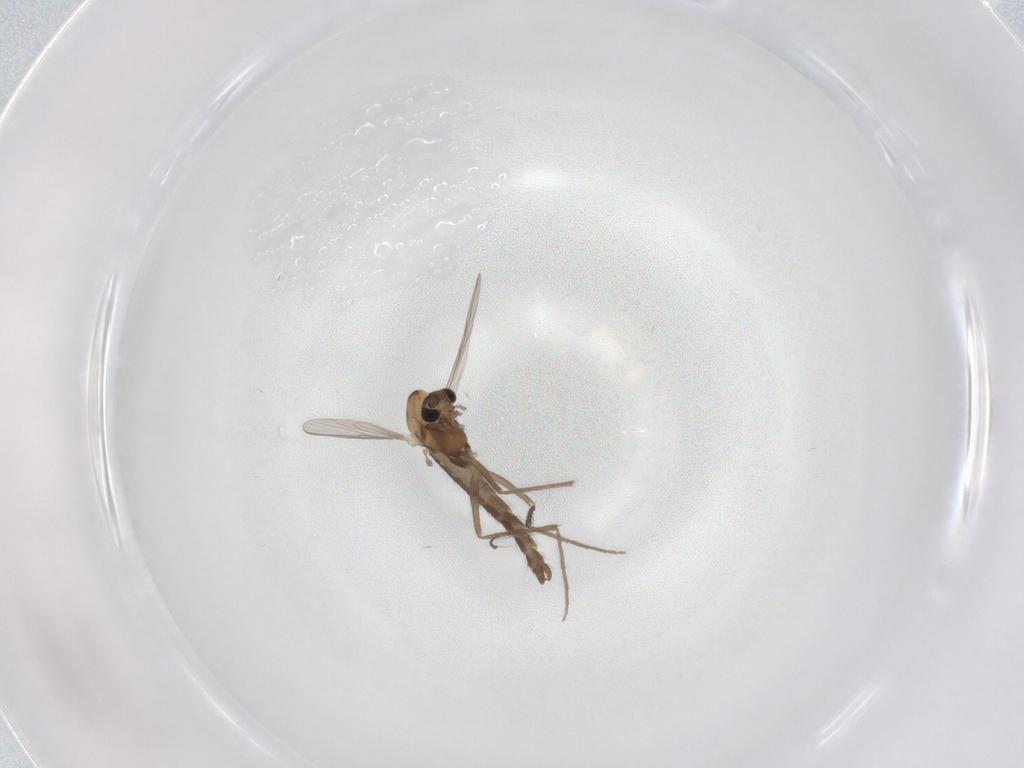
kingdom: Animalia
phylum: Arthropoda
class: Insecta
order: Diptera
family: Chironomidae
